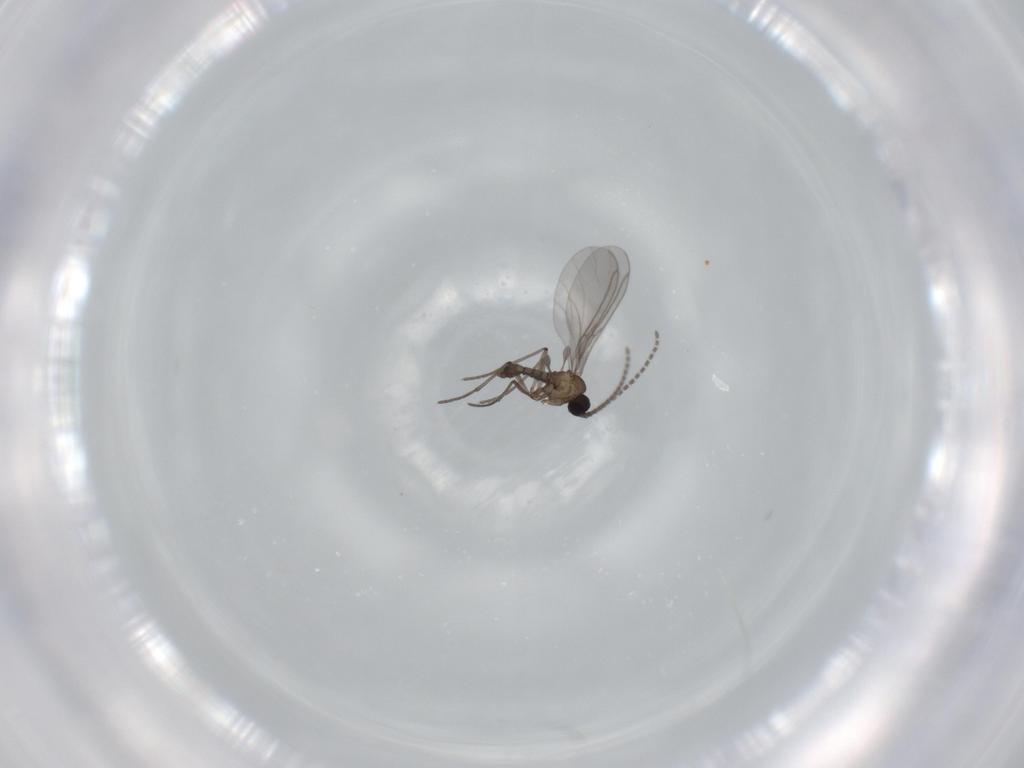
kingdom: Animalia
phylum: Arthropoda
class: Insecta
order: Diptera
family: Sciaridae
